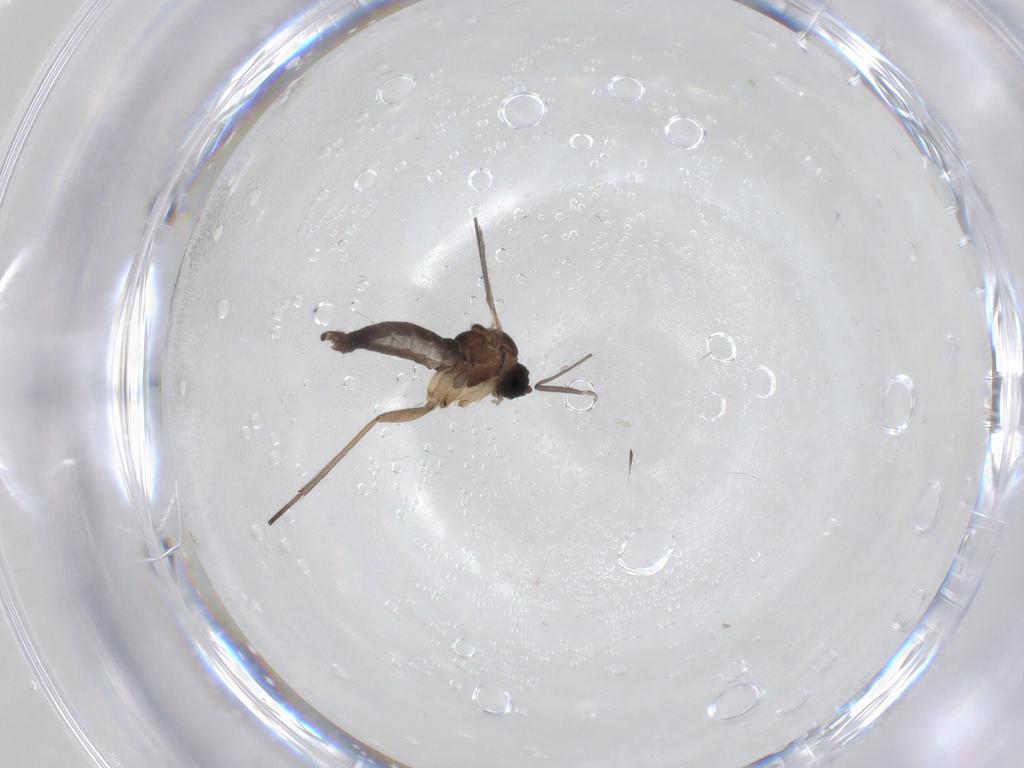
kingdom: Animalia
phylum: Arthropoda
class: Insecta
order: Diptera
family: Sciaridae
